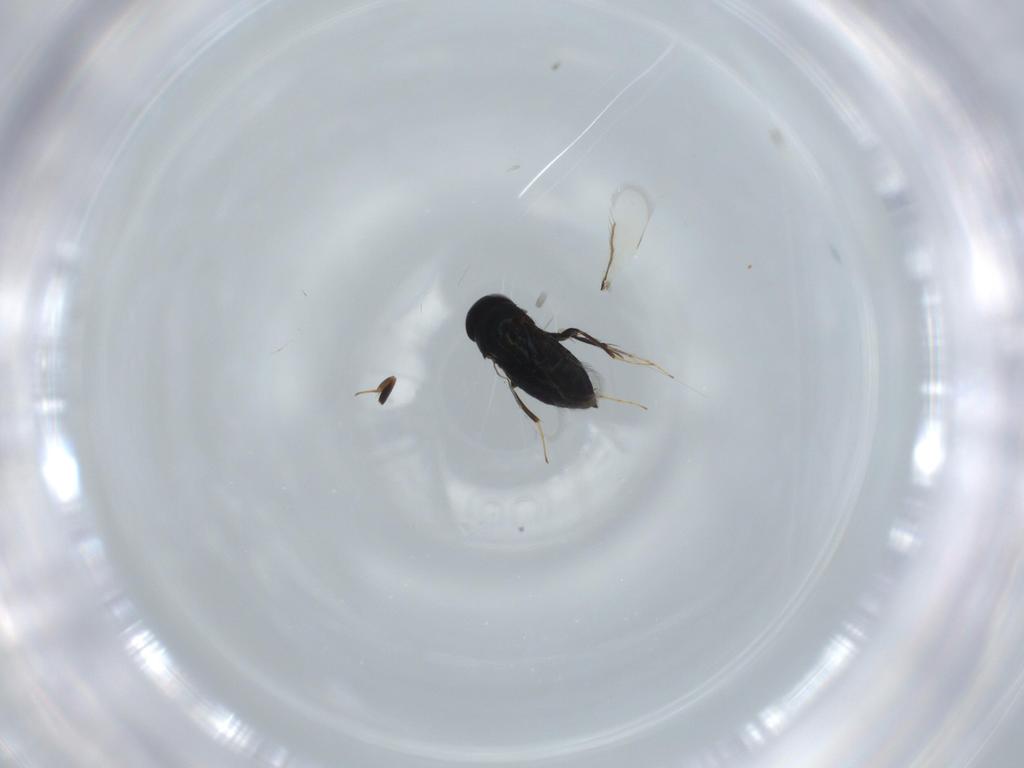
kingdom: Animalia
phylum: Arthropoda
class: Insecta
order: Hymenoptera
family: Signiphoridae
